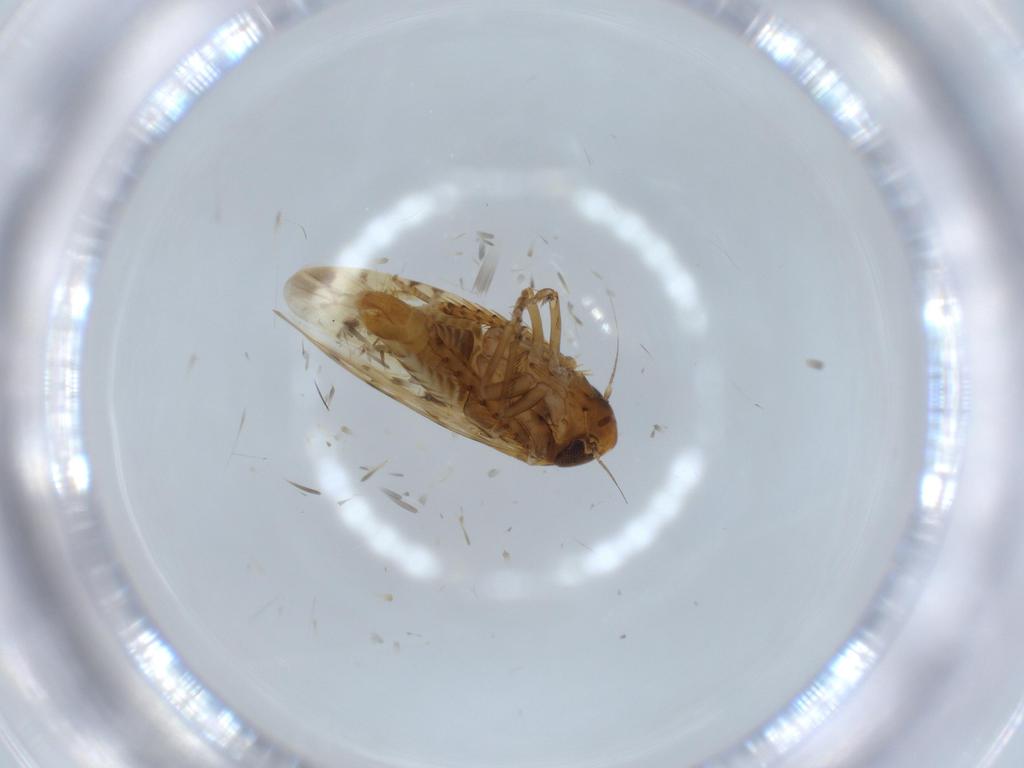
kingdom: Animalia
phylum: Arthropoda
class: Insecta
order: Hemiptera
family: Cicadellidae
